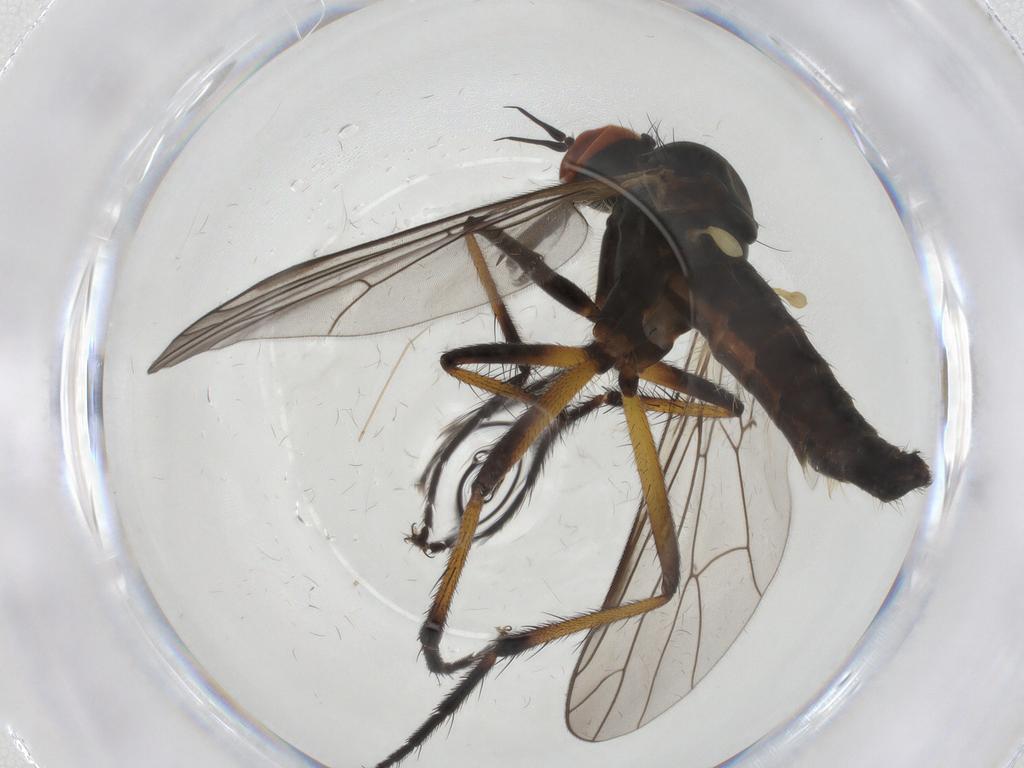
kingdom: Animalia
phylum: Arthropoda
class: Insecta
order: Diptera
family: Empididae
